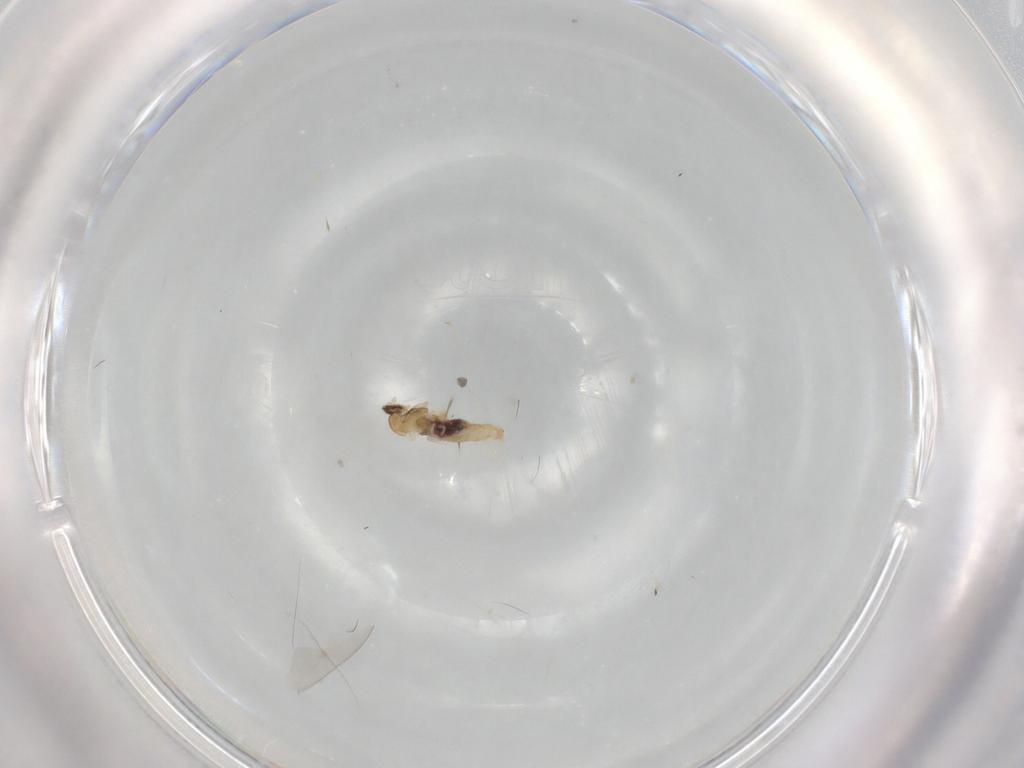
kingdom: Animalia
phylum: Arthropoda
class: Insecta
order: Diptera
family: Cecidomyiidae
